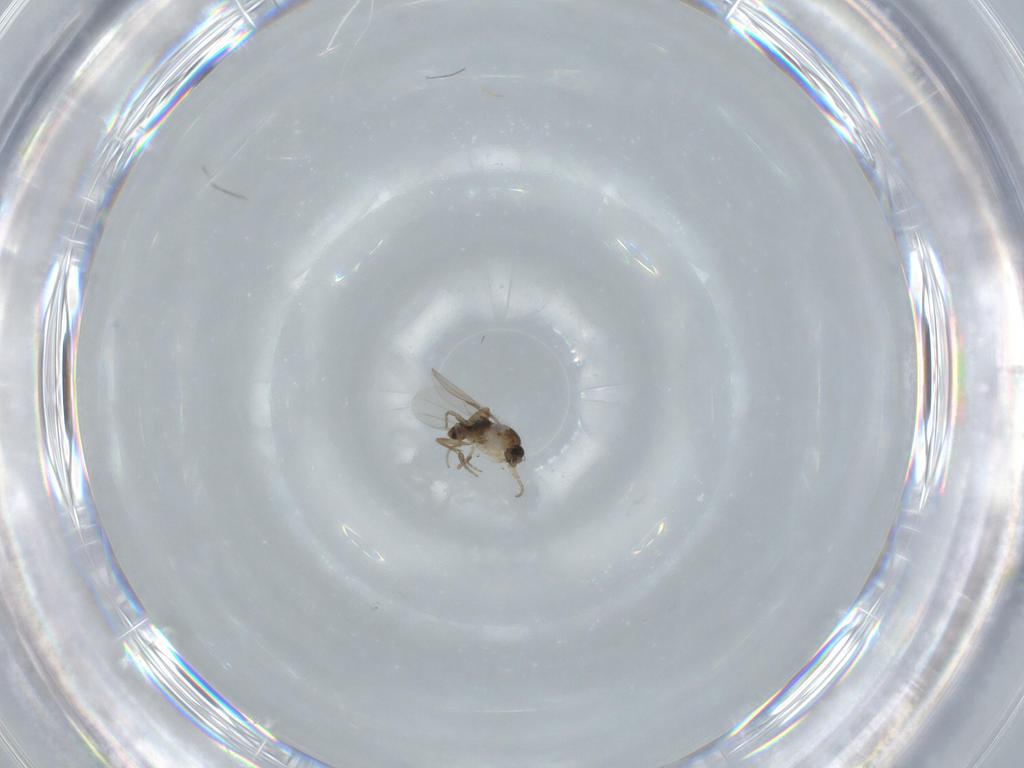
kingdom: Animalia
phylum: Arthropoda
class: Insecta
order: Diptera
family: Phoridae
